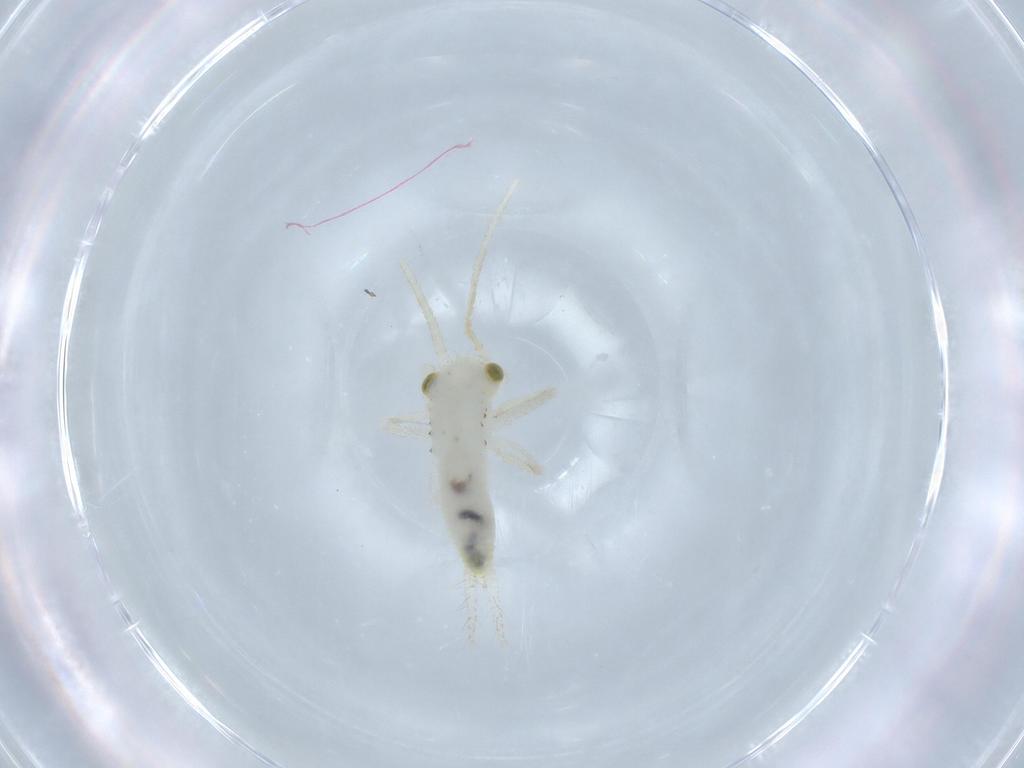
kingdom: Animalia
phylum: Arthropoda
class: Insecta
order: Orthoptera
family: Trigonidiidae
